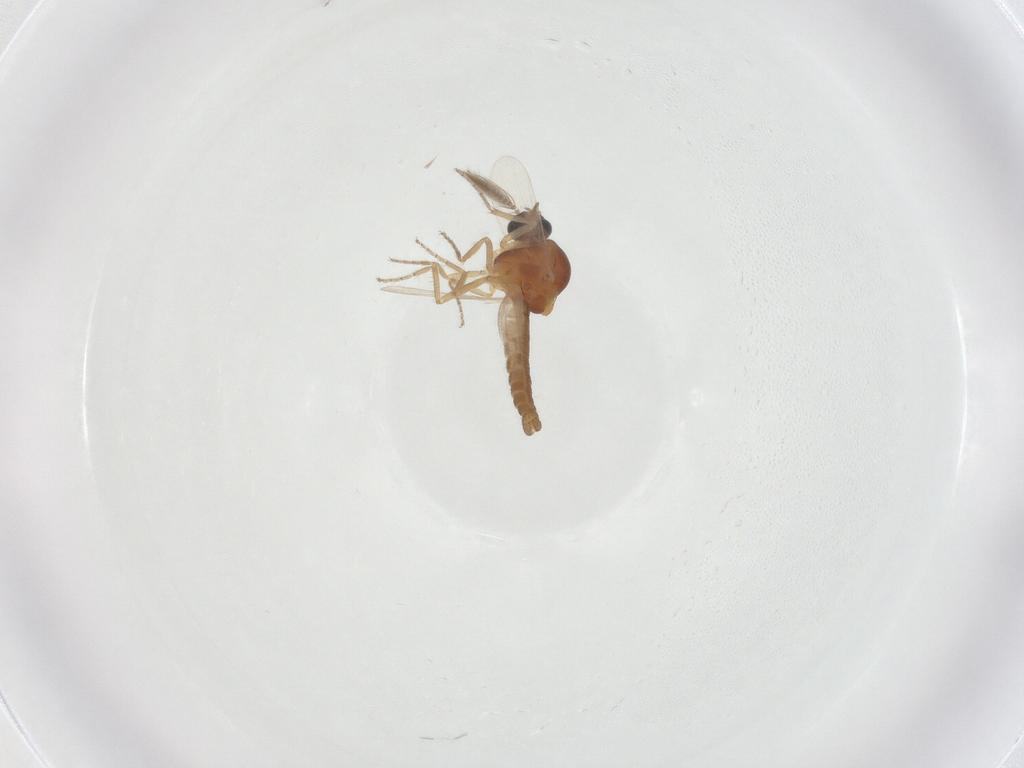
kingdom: Animalia
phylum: Arthropoda
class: Insecta
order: Diptera
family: Ceratopogonidae
